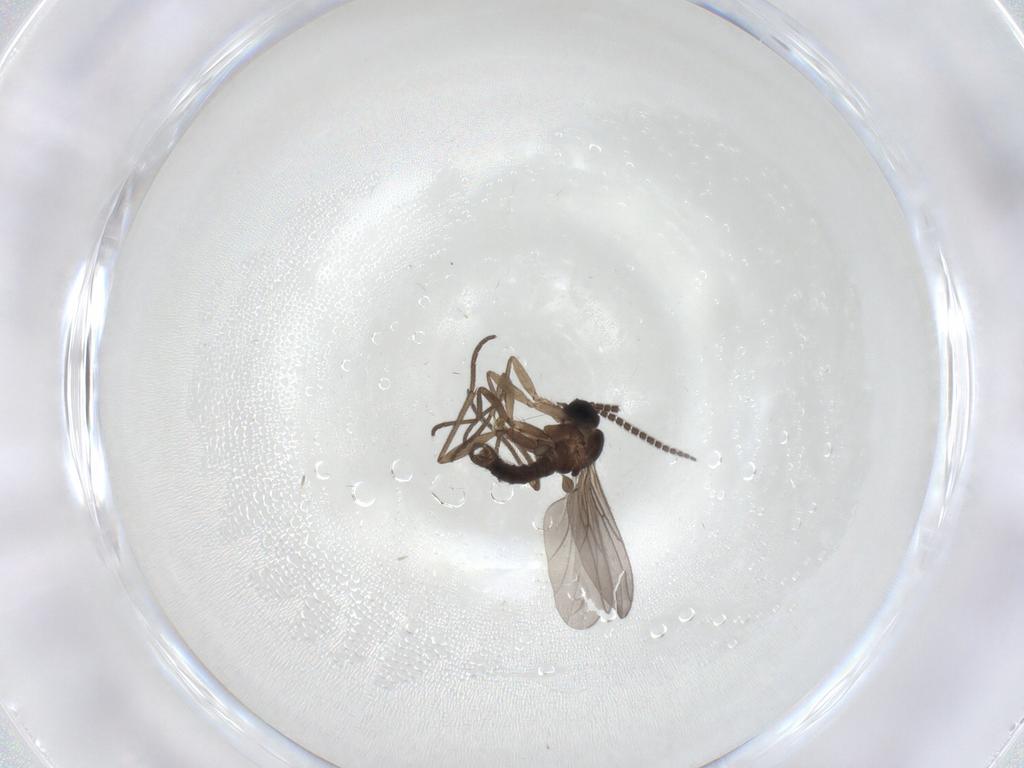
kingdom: Animalia
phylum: Arthropoda
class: Insecta
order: Diptera
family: Sciaridae
